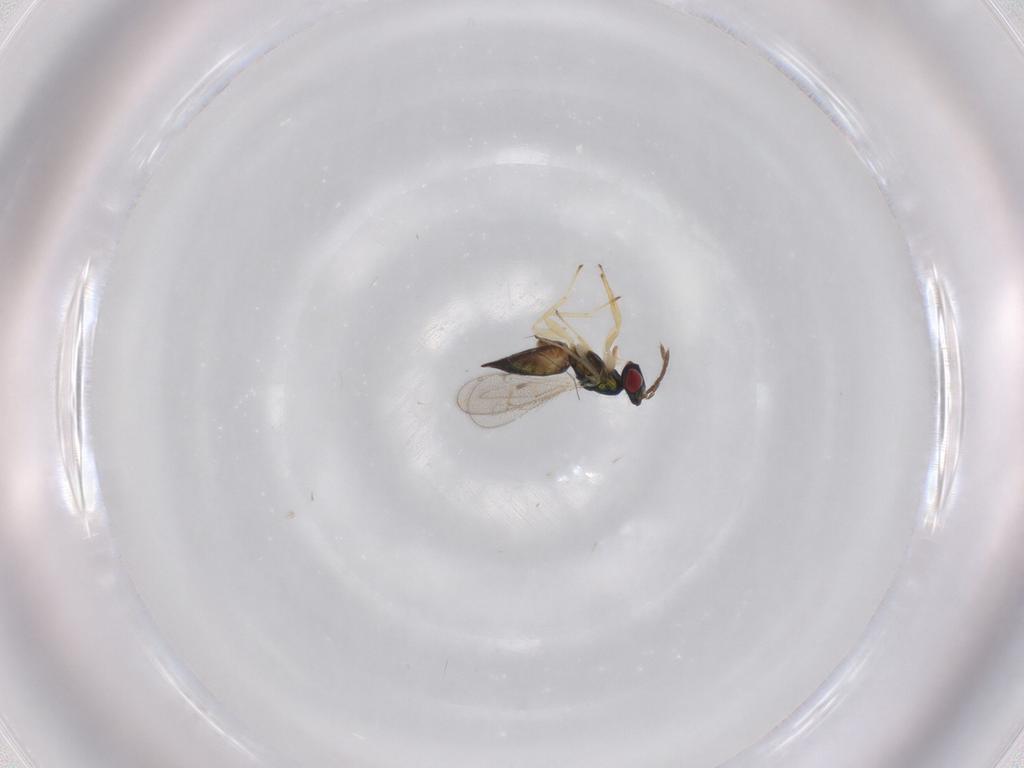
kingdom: Animalia
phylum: Arthropoda
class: Insecta
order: Hymenoptera
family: Eulophidae
